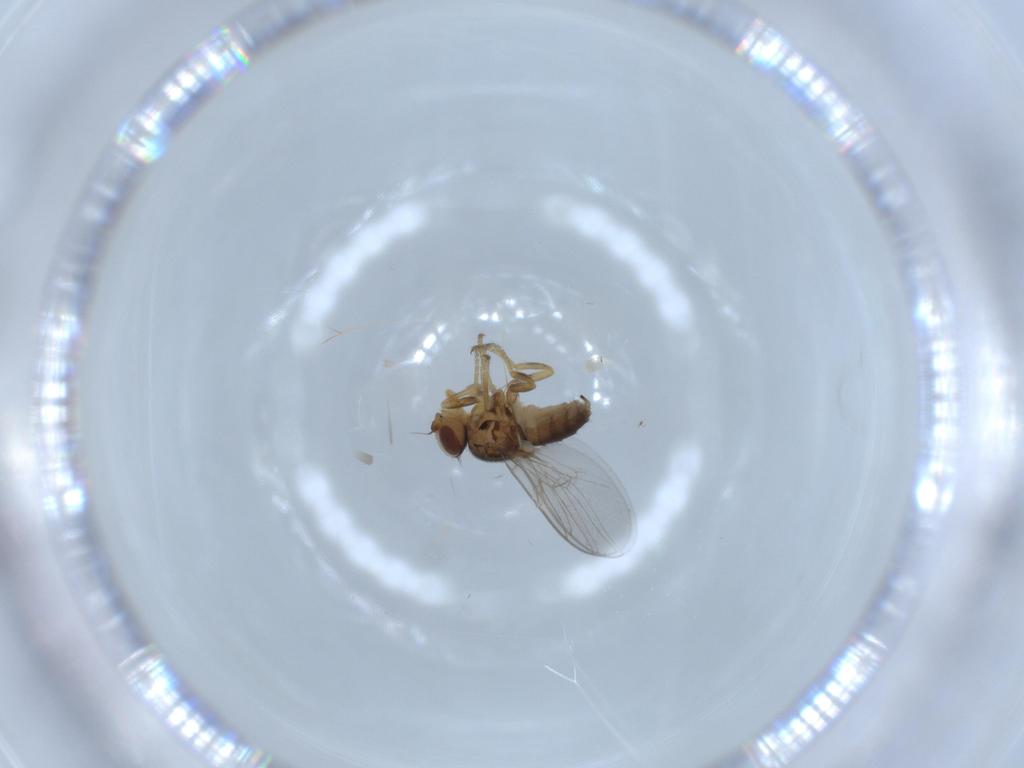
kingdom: Animalia
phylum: Arthropoda
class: Insecta
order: Diptera
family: Chloropidae
